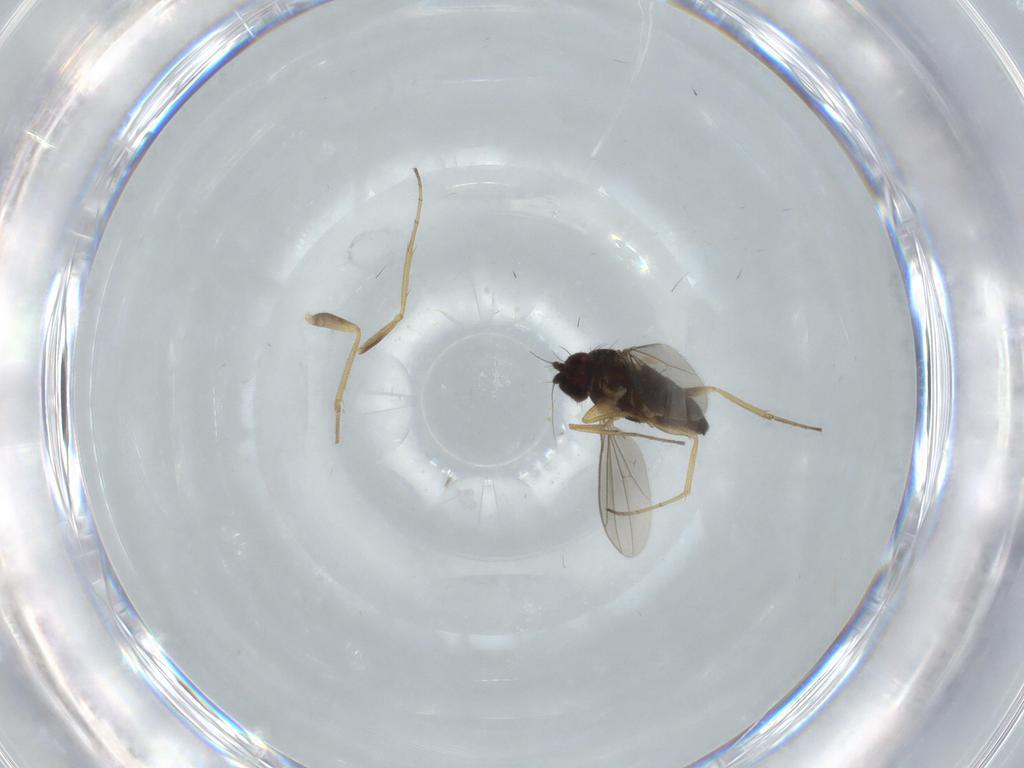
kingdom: Animalia
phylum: Arthropoda
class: Insecta
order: Diptera
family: Dolichopodidae
